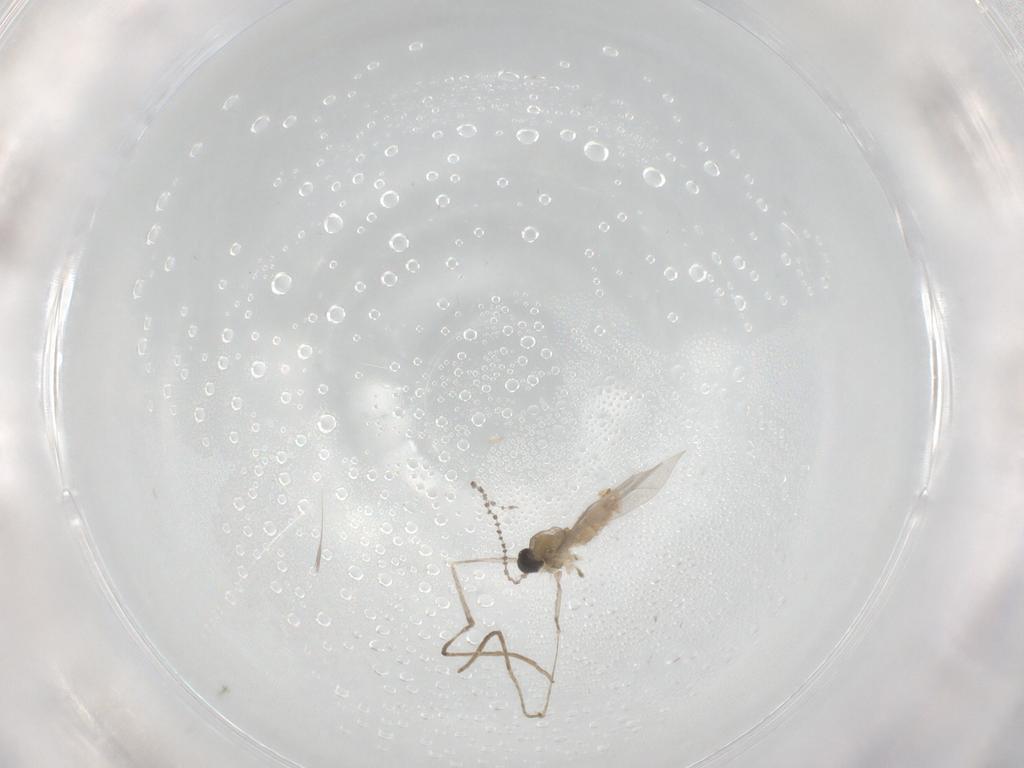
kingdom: Animalia
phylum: Arthropoda
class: Insecta
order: Diptera
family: Cecidomyiidae
